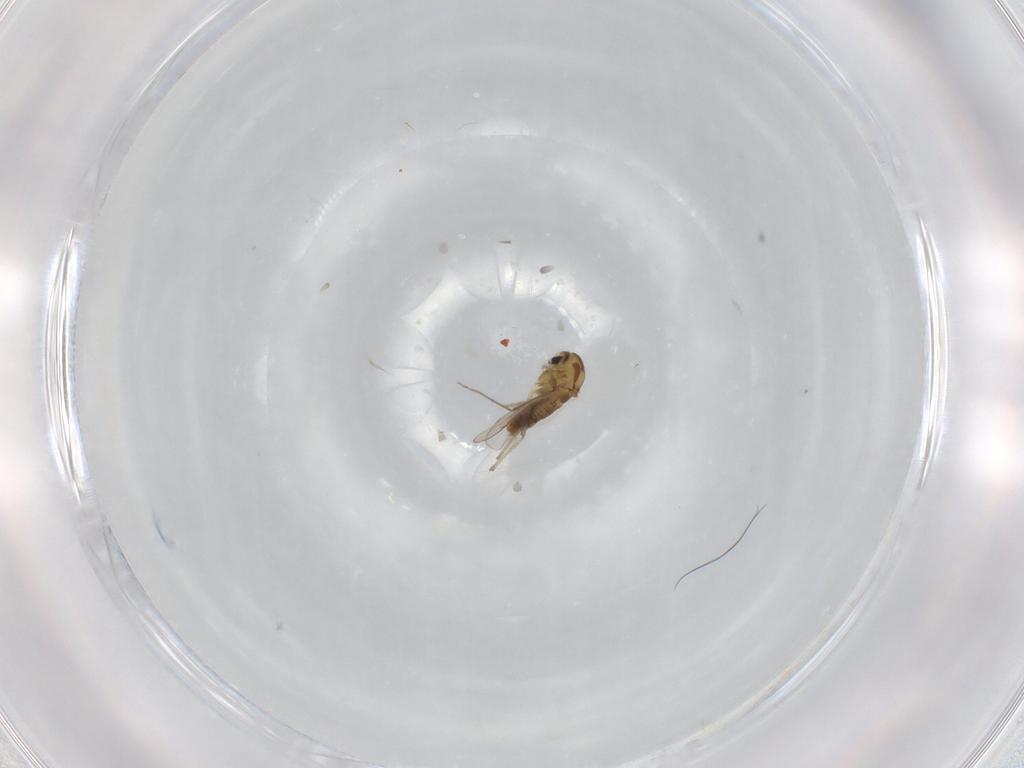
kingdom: Animalia
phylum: Arthropoda
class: Insecta
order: Diptera
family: Chironomidae
